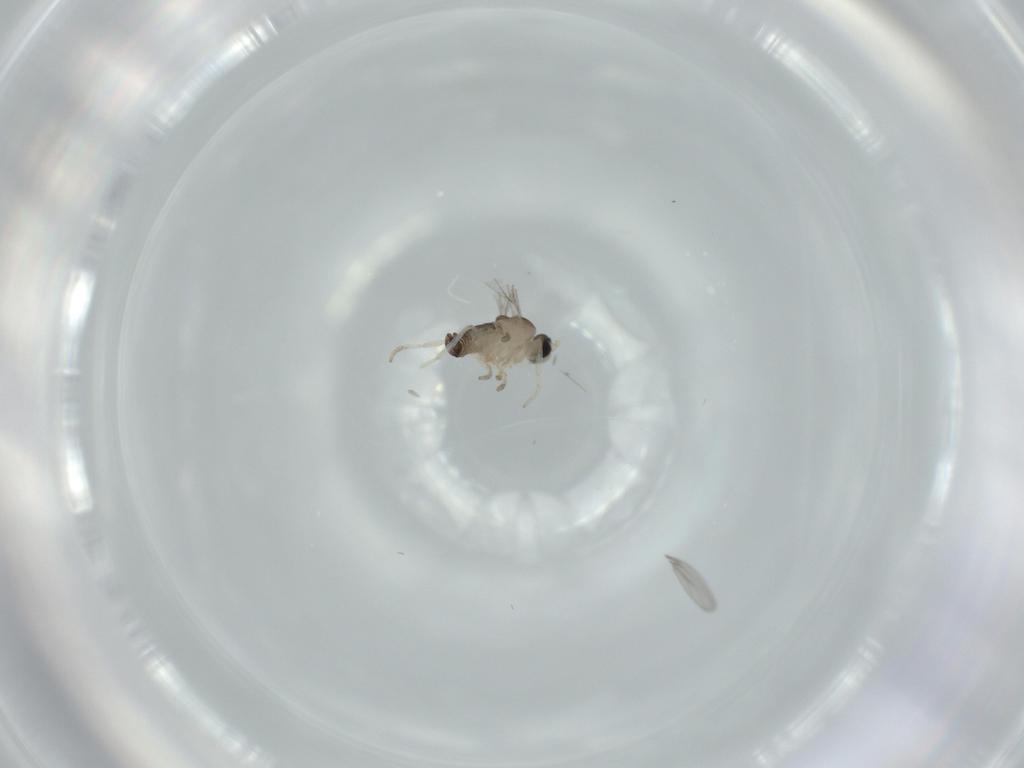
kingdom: Animalia
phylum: Arthropoda
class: Insecta
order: Diptera
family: Cecidomyiidae
